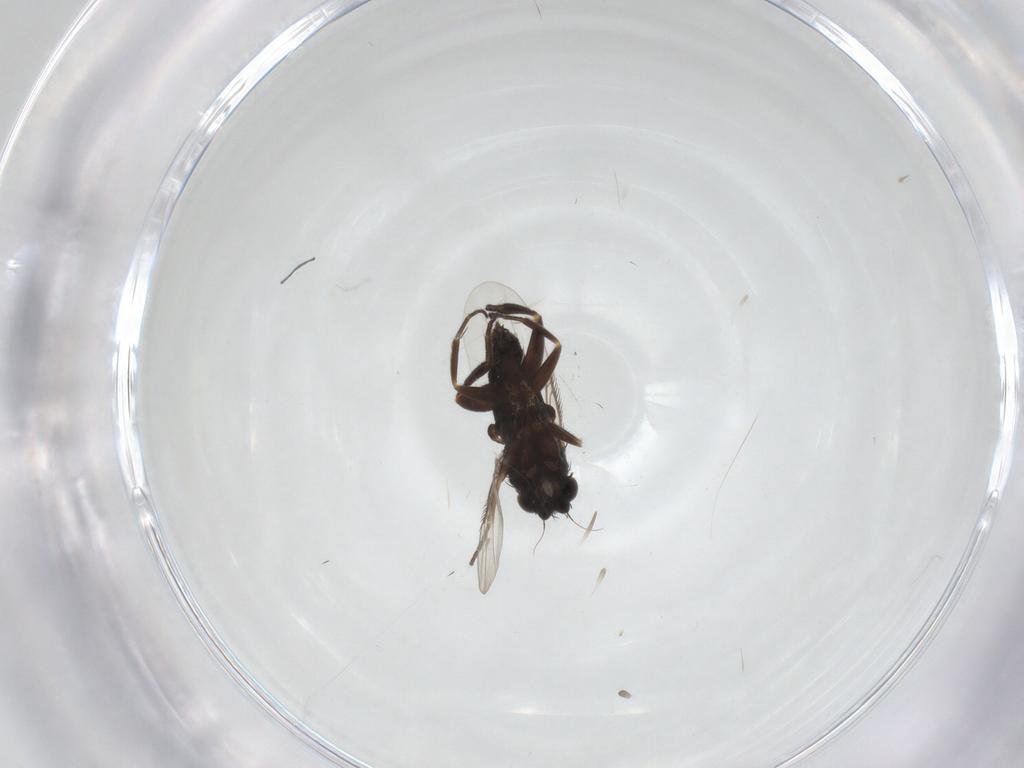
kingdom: Animalia
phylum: Arthropoda
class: Insecta
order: Diptera
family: Phoridae
